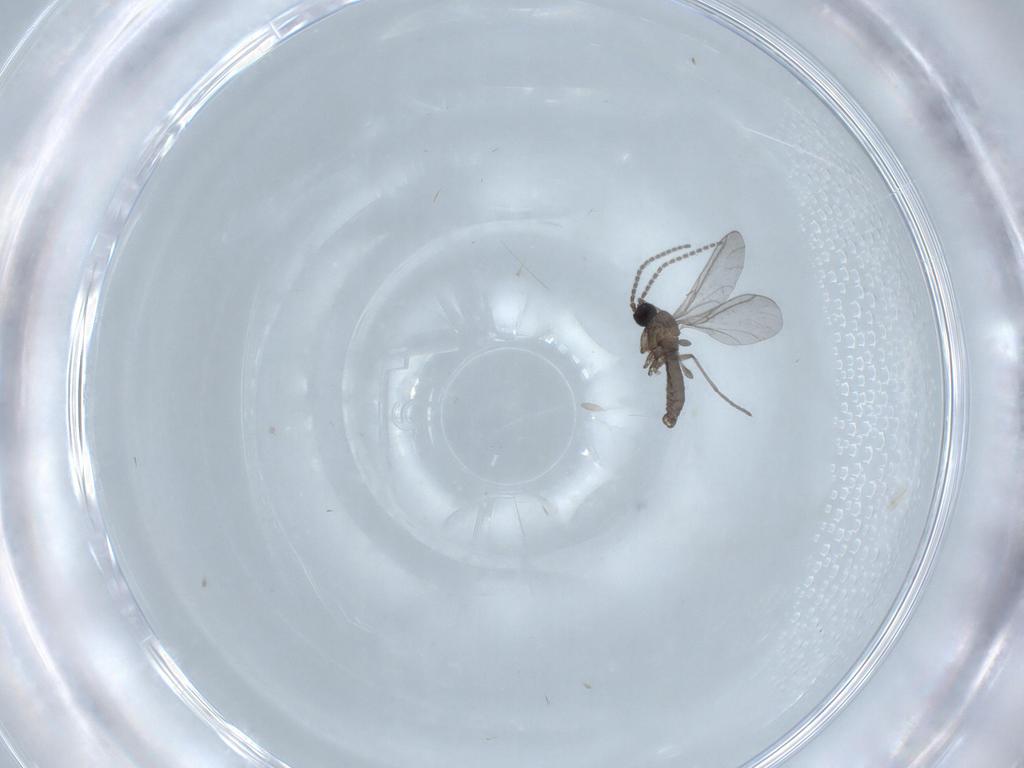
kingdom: Animalia
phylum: Arthropoda
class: Insecta
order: Diptera
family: Sciaridae
